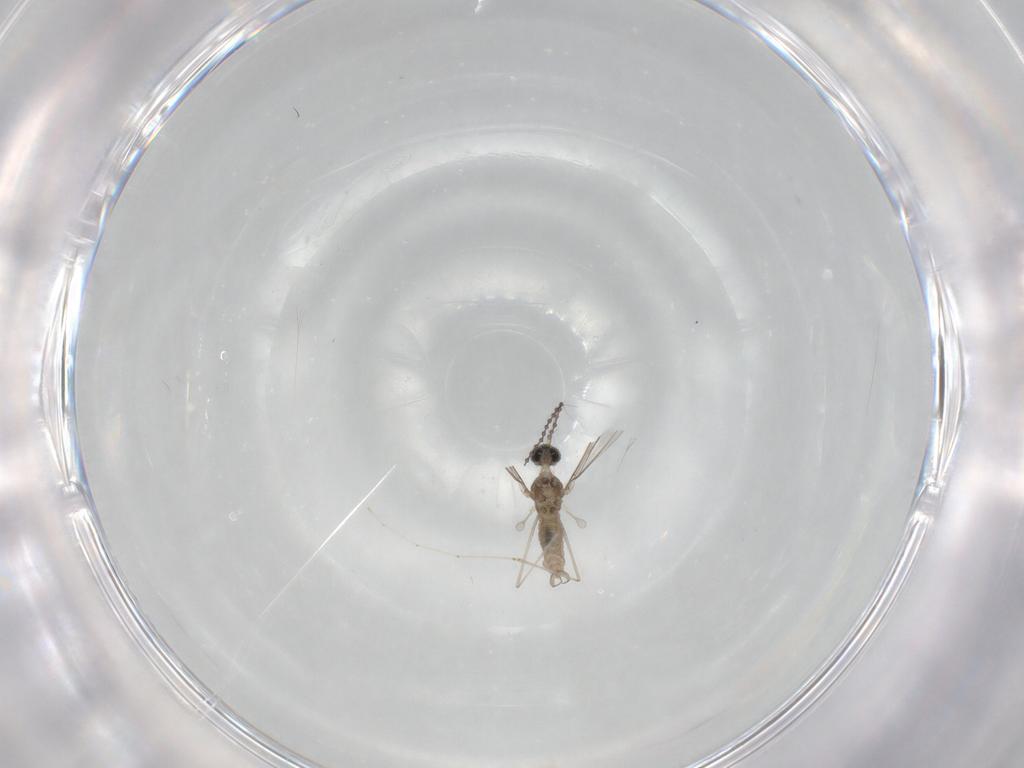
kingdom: Animalia
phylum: Arthropoda
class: Insecta
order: Diptera
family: Cecidomyiidae
